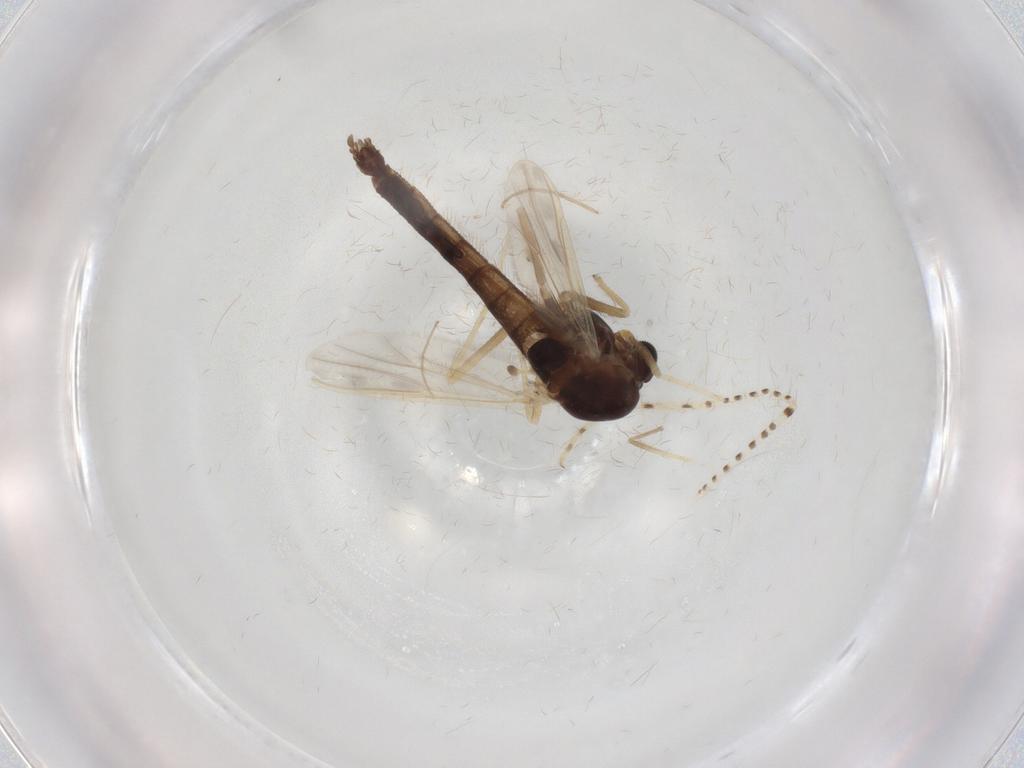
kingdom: Animalia
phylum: Arthropoda
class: Insecta
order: Diptera
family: Chironomidae
